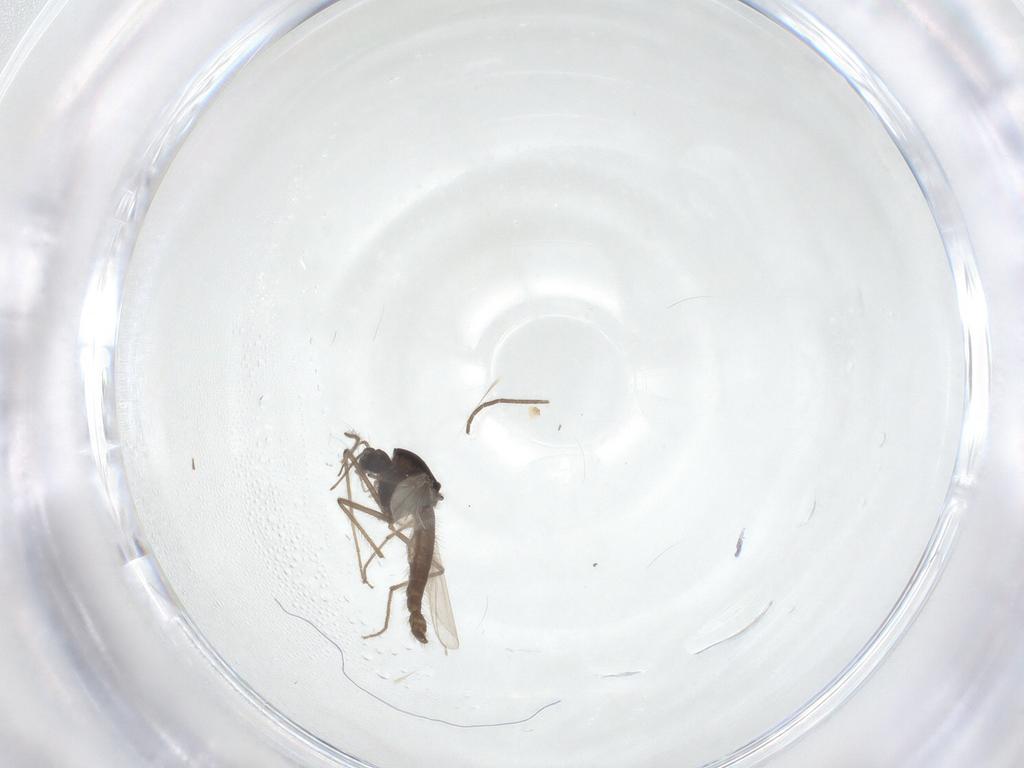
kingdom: Animalia
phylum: Arthropoda
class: Insecta
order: Diptera
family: Chironomidae
